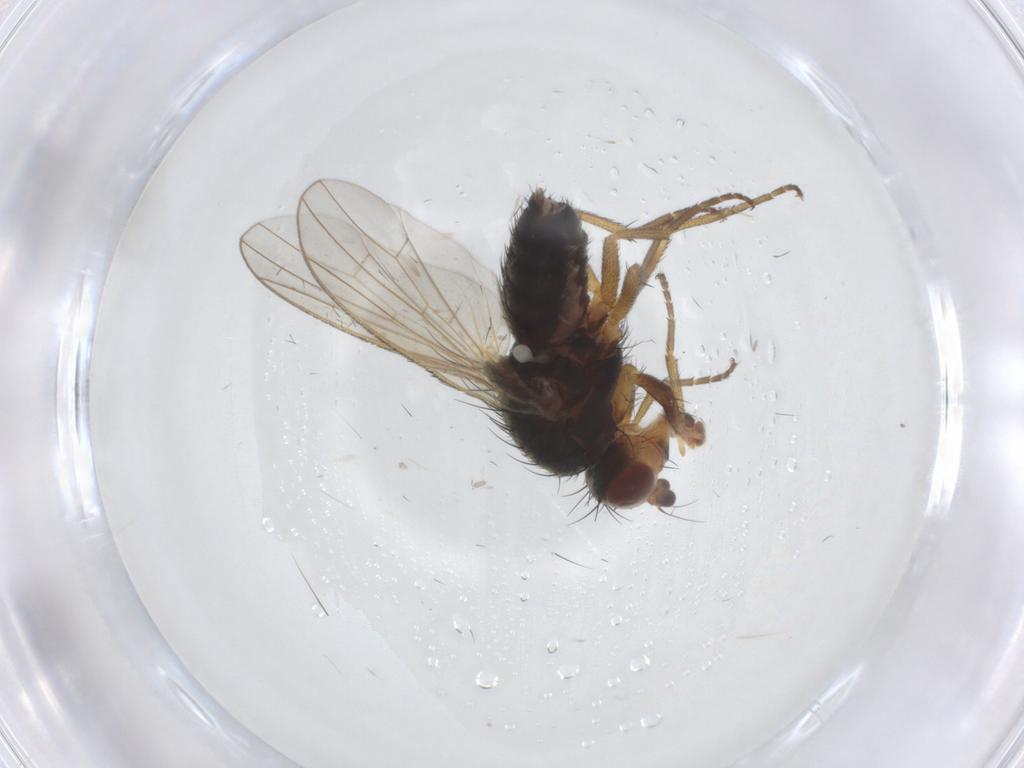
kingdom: Animalia
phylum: Arthropoda
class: Insecta
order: Diptera
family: Heleomyzidae
